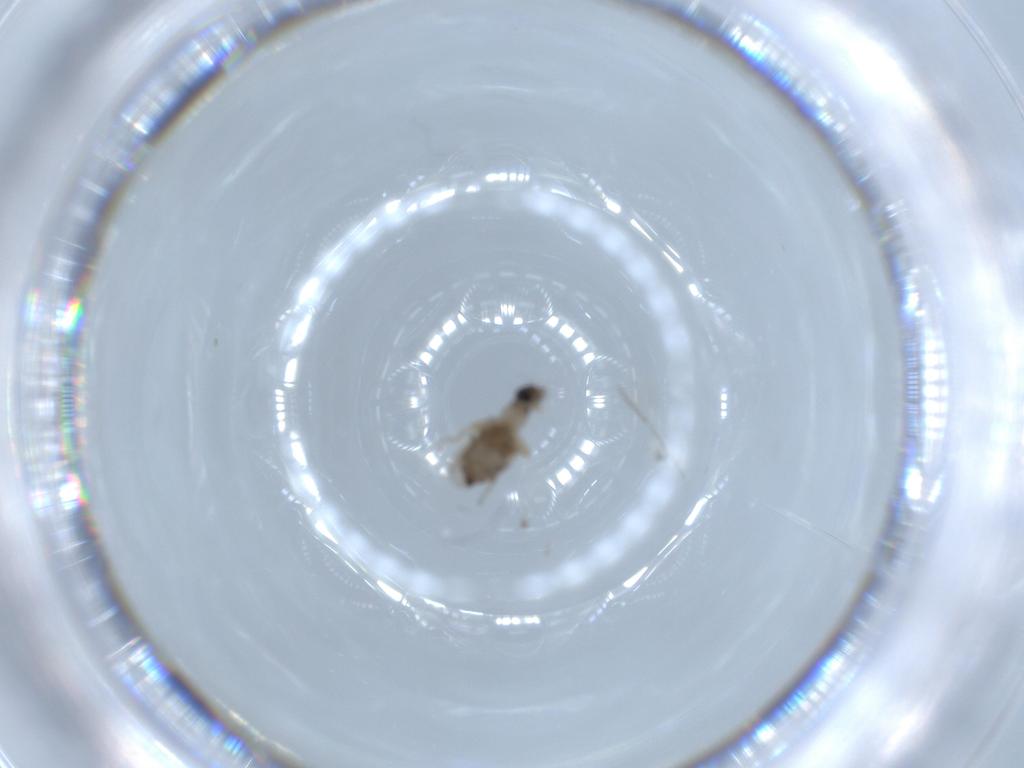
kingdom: Animalia
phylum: Arthropoda
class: Insecta
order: Diptera
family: Phoridae
